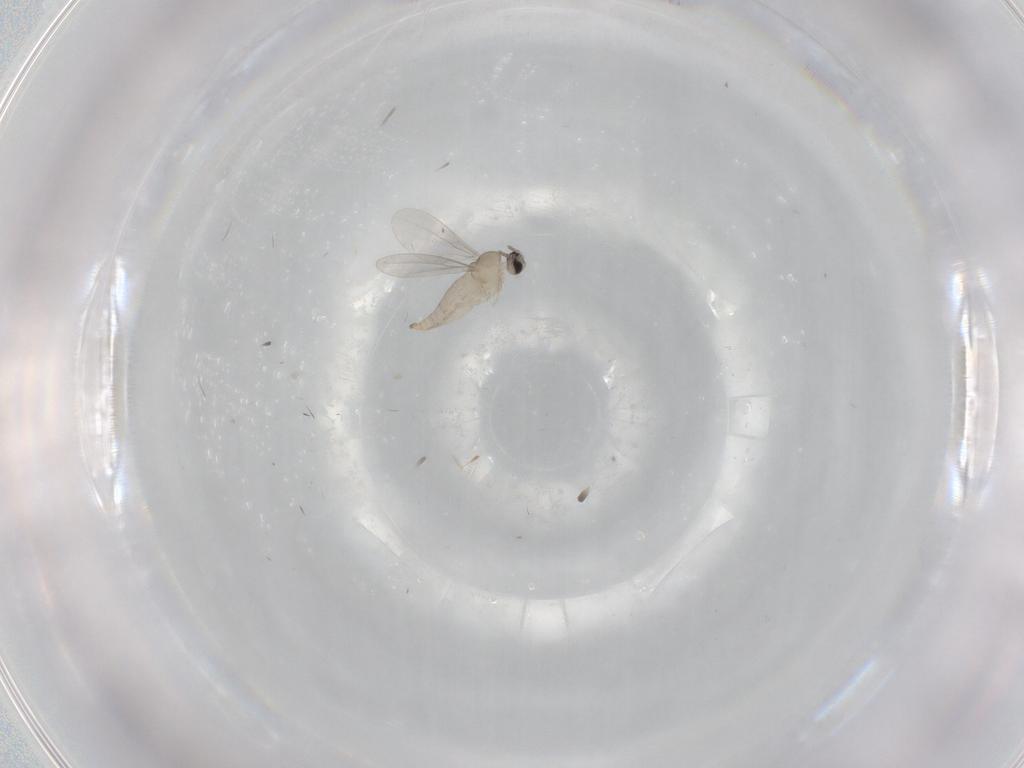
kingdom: Animalia
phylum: Arthropoda
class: Insecta
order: Diptera
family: Cecidomyiidae
